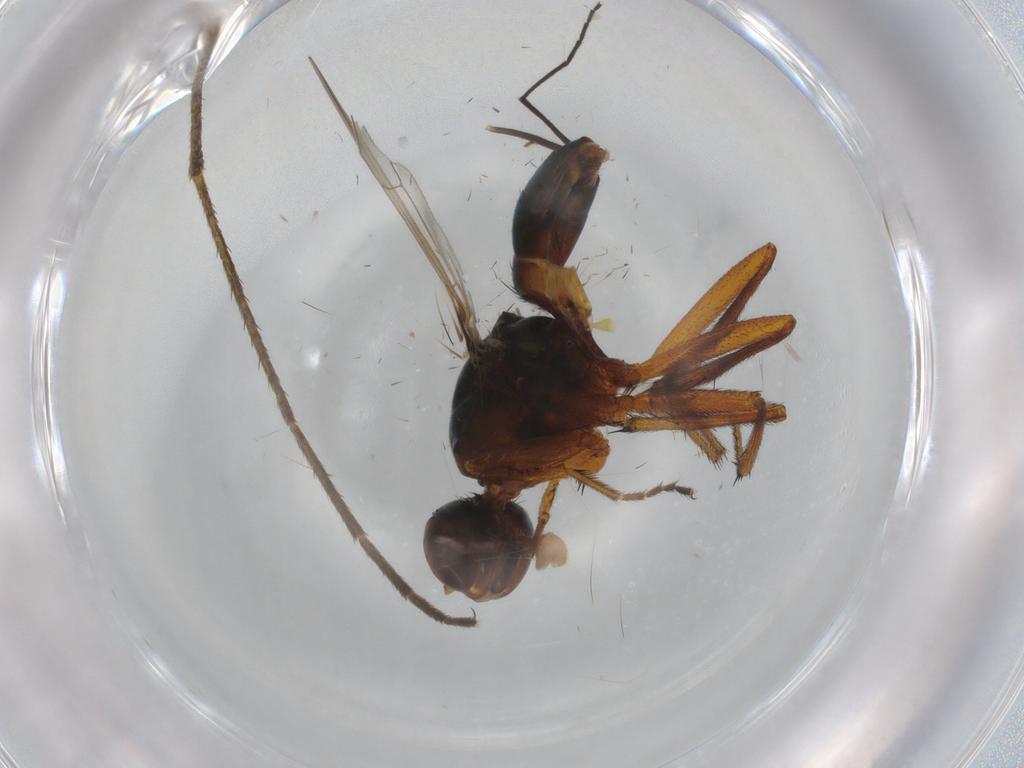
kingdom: Animalia
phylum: Arthropoda
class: Insecta
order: Diptera
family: Sepsidae
